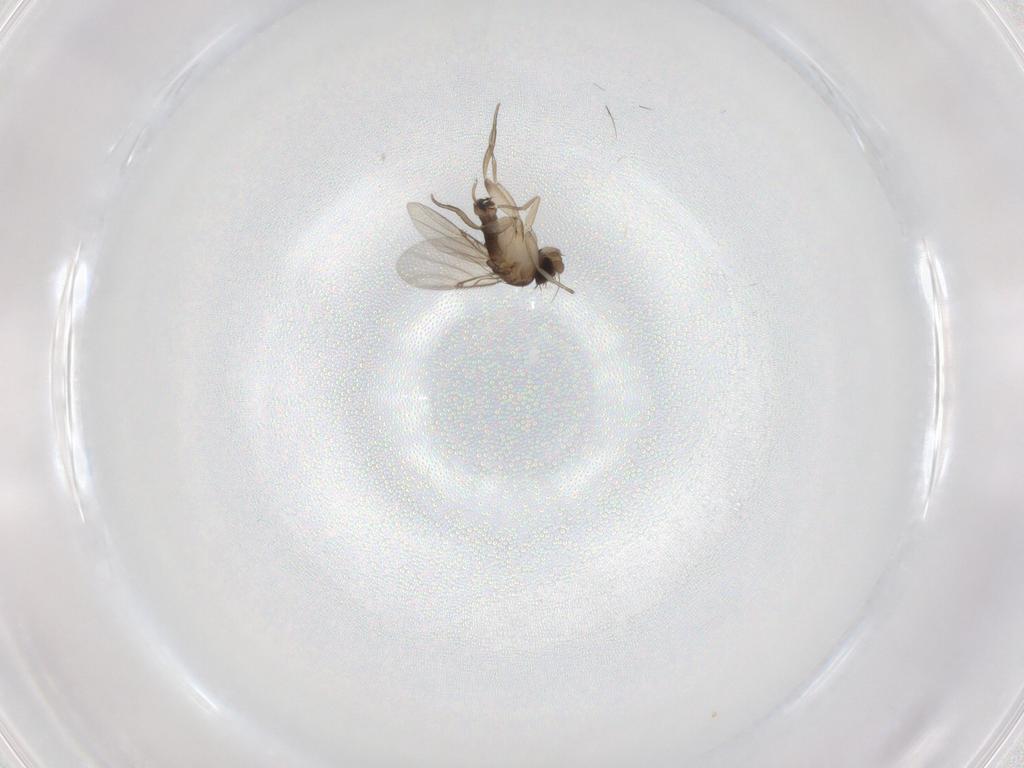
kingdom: Animalia
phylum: Arthropoda
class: Insecta
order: Diptera
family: Phoridae
